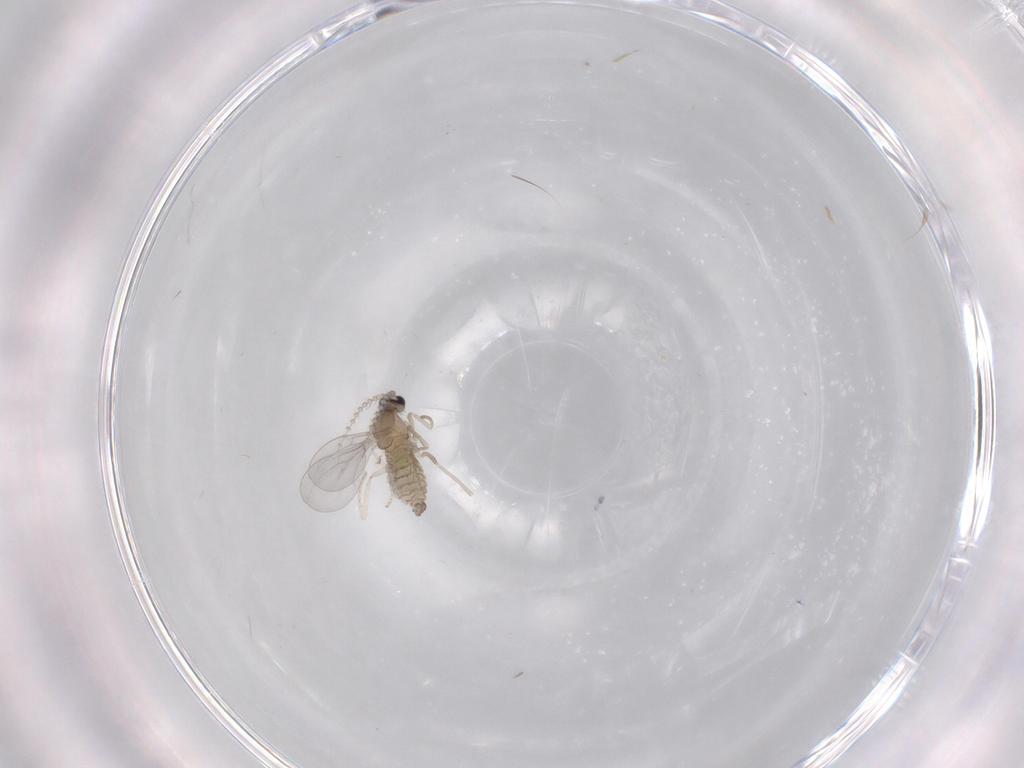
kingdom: Animalia
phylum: Arthropoda
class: Insecta
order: Diptera
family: Cecidomyiidae
